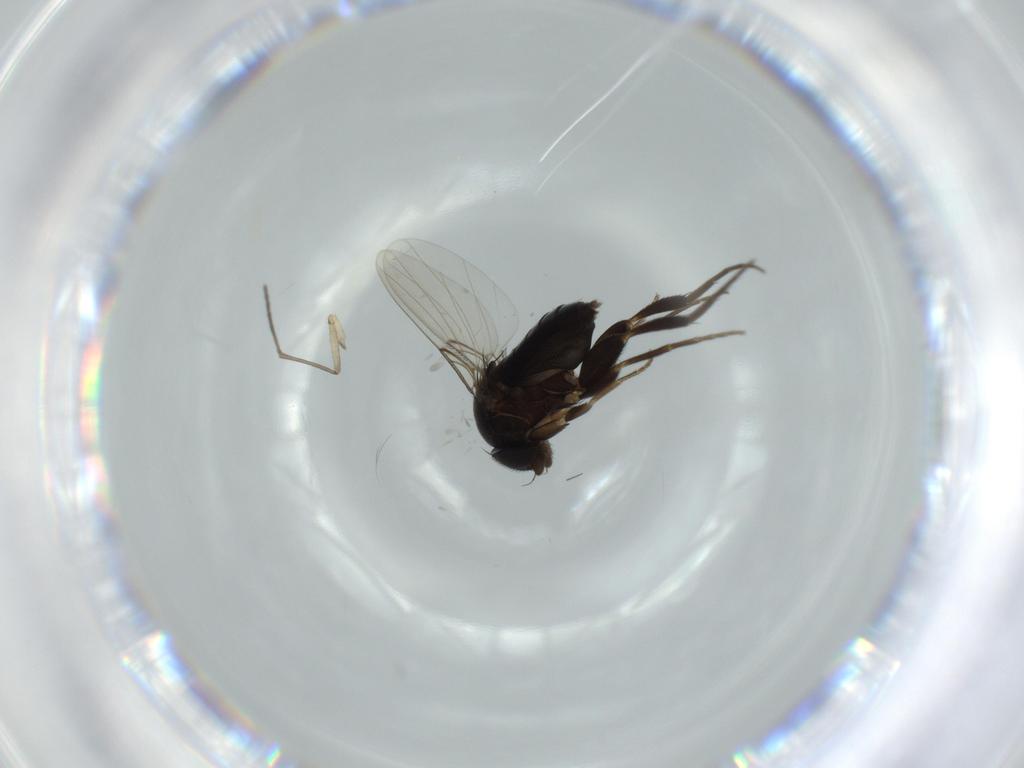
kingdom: Animalia
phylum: Arthropoda
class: Insecta
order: Diptera
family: Phoridae
